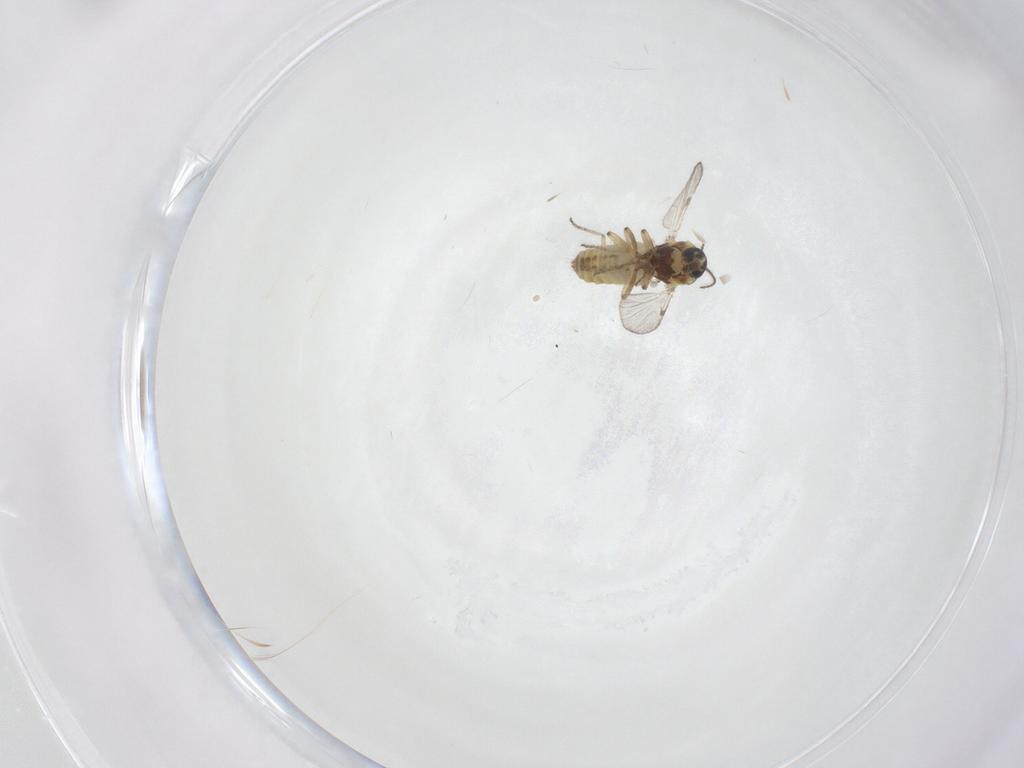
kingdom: Animalia
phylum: Arthropoda
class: Insecta
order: Diptera
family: Ceratopogonidae
